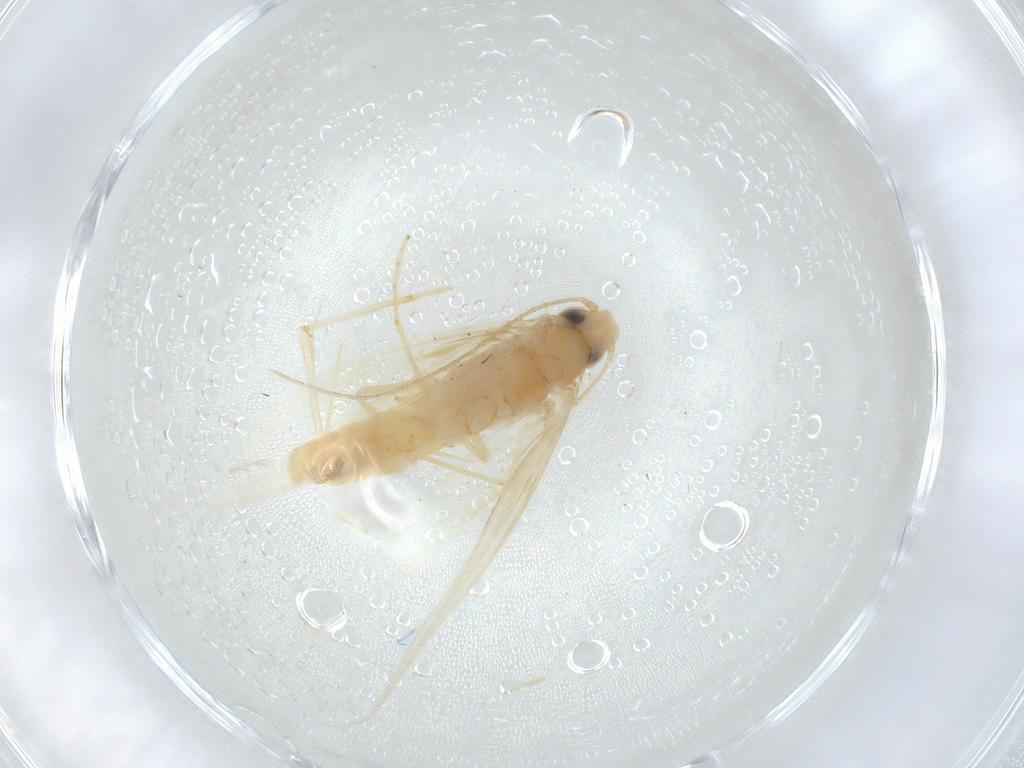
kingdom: Animalia
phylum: Arthropoda
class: Insecta
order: Lepidoptera
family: Tischeriidae
